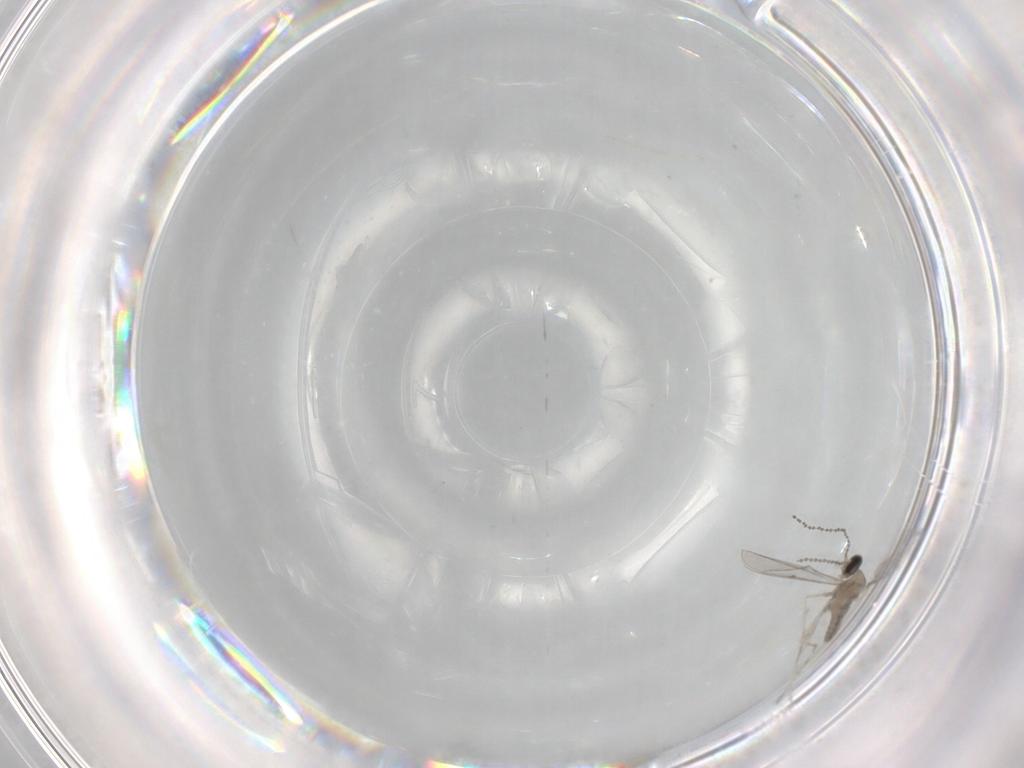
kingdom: Animalia
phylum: Arthropoda
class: Insecta
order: Diptera
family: Cecidomyiidae
